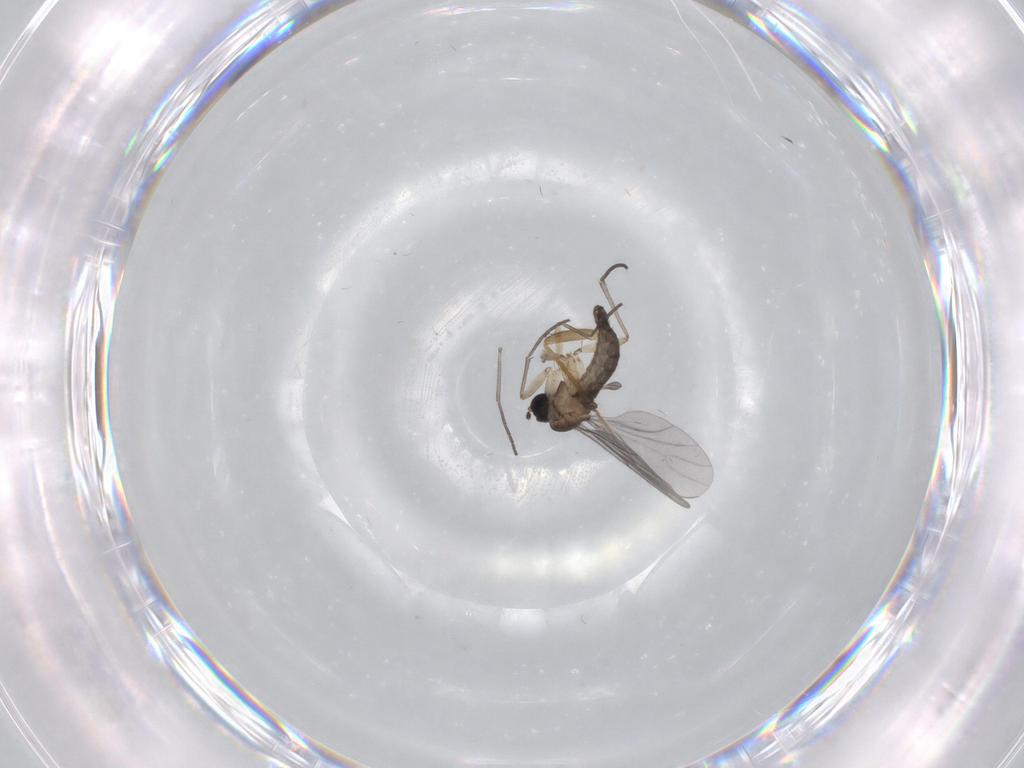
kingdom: Animalia
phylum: Arthropoda
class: Insecta
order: Diptera
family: Sciaridae
